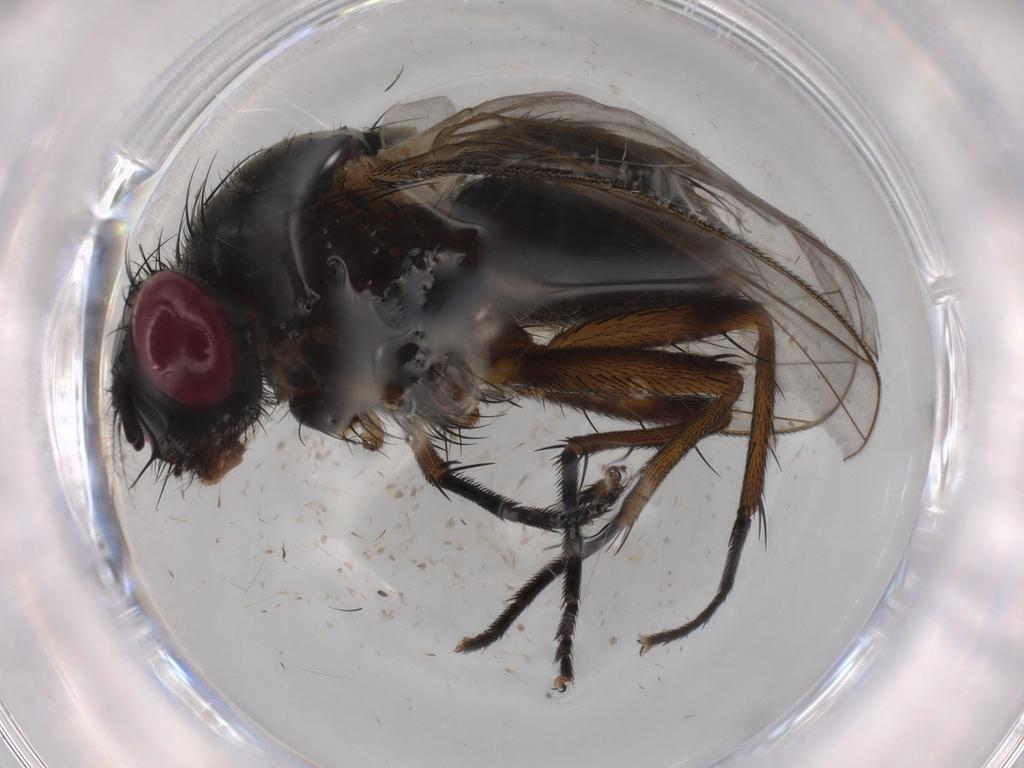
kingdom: Animalia
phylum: Arthropoda
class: Insecta
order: Diptera
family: Muscidae
